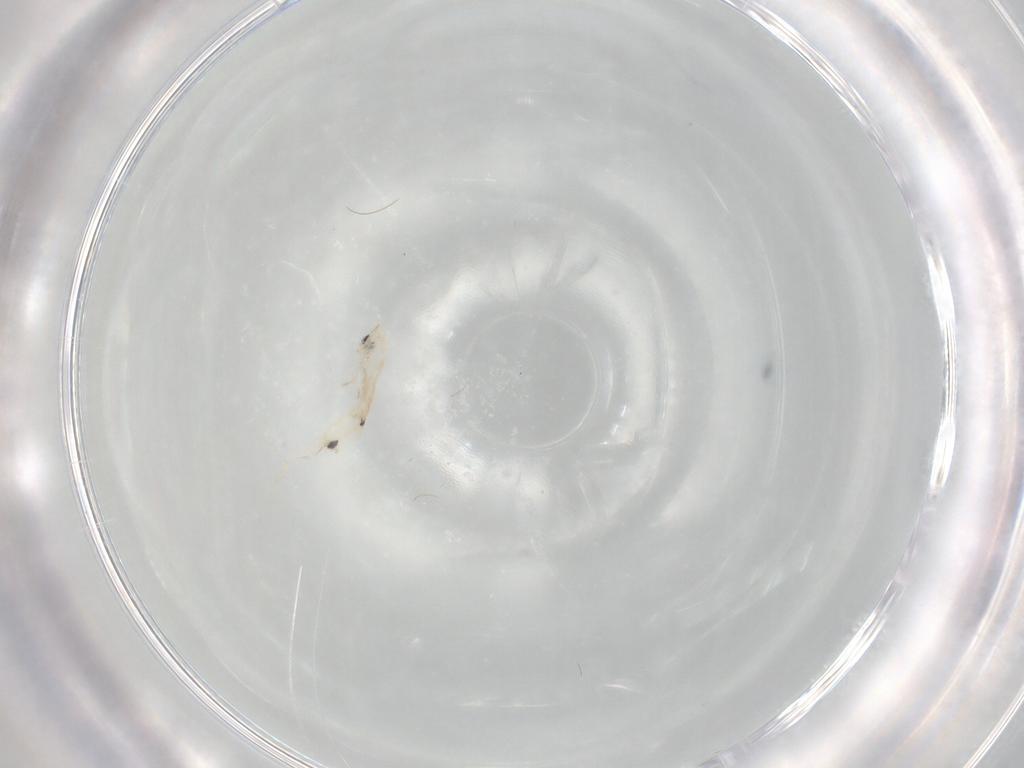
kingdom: Animalia
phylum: Arthropoda
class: Collembola
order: Entomobryomorpha
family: Entomobryidae
